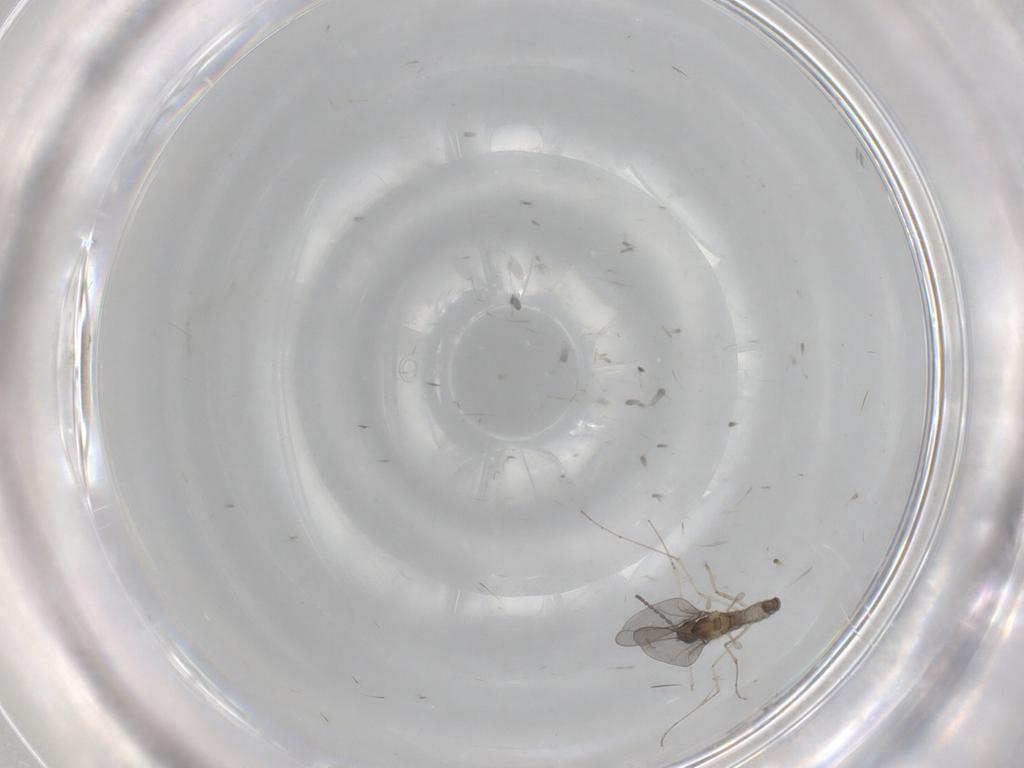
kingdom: Animalia
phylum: Arthropoda
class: Insecta
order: Diptera
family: Cecidomyiidae
